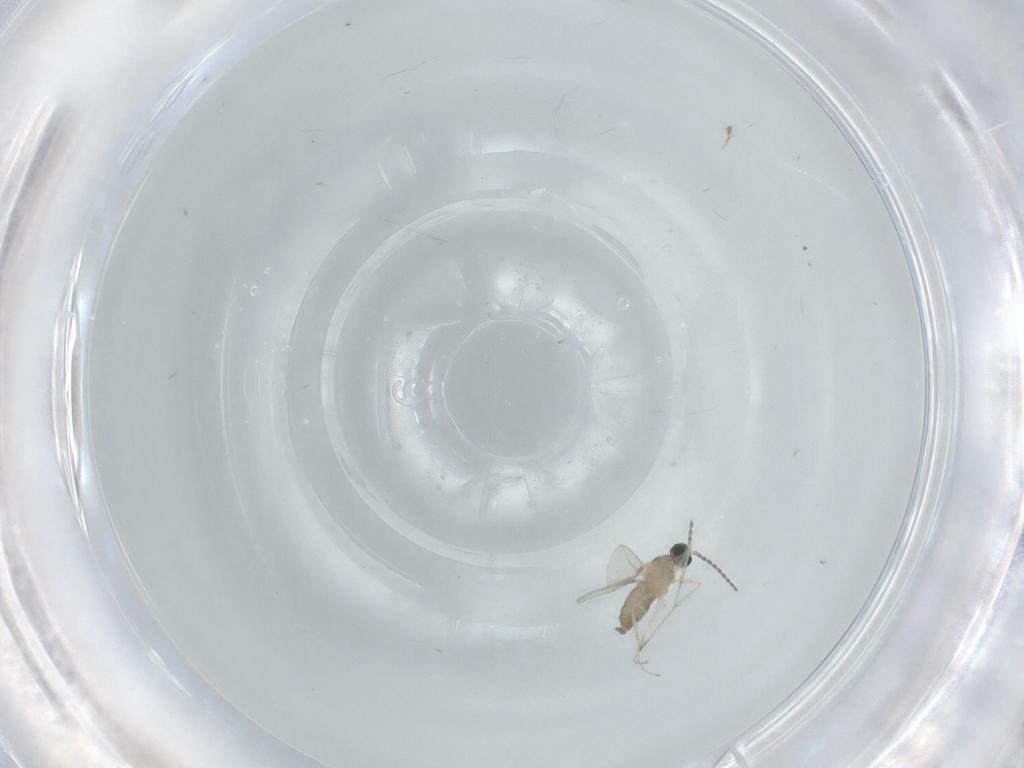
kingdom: Animalia
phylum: Arthropoda
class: Insecta
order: Diptera
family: Cecidomyiidae
